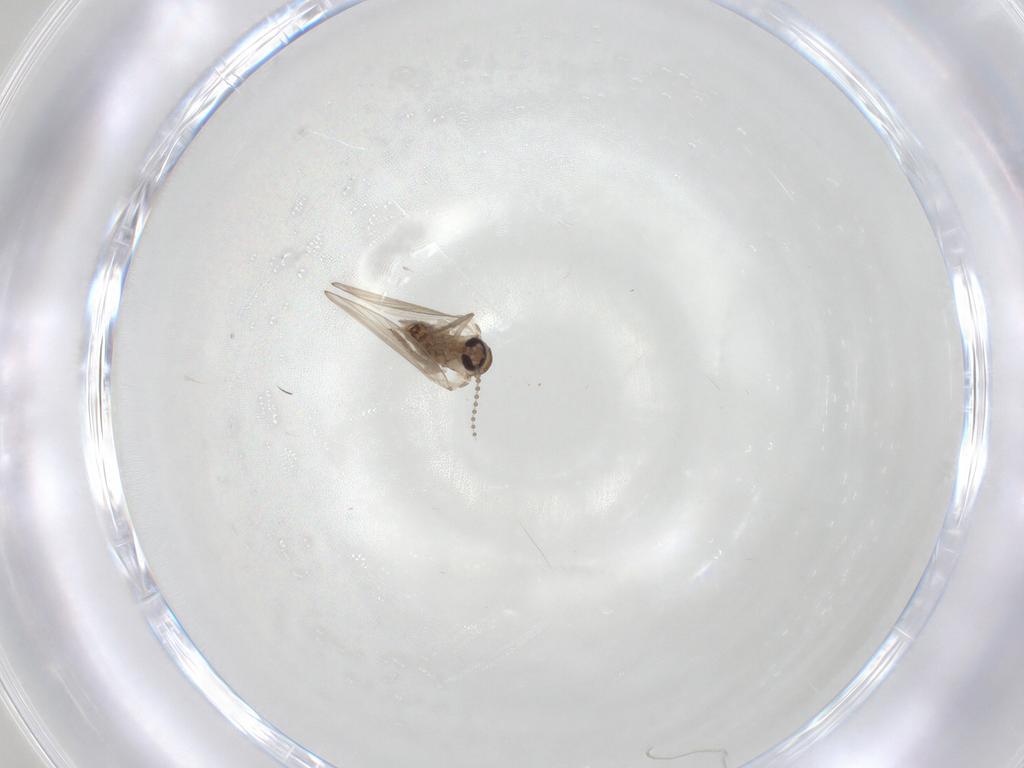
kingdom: Animalia
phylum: Arthropoda
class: Insecta
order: Diptera
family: Psychodidae
